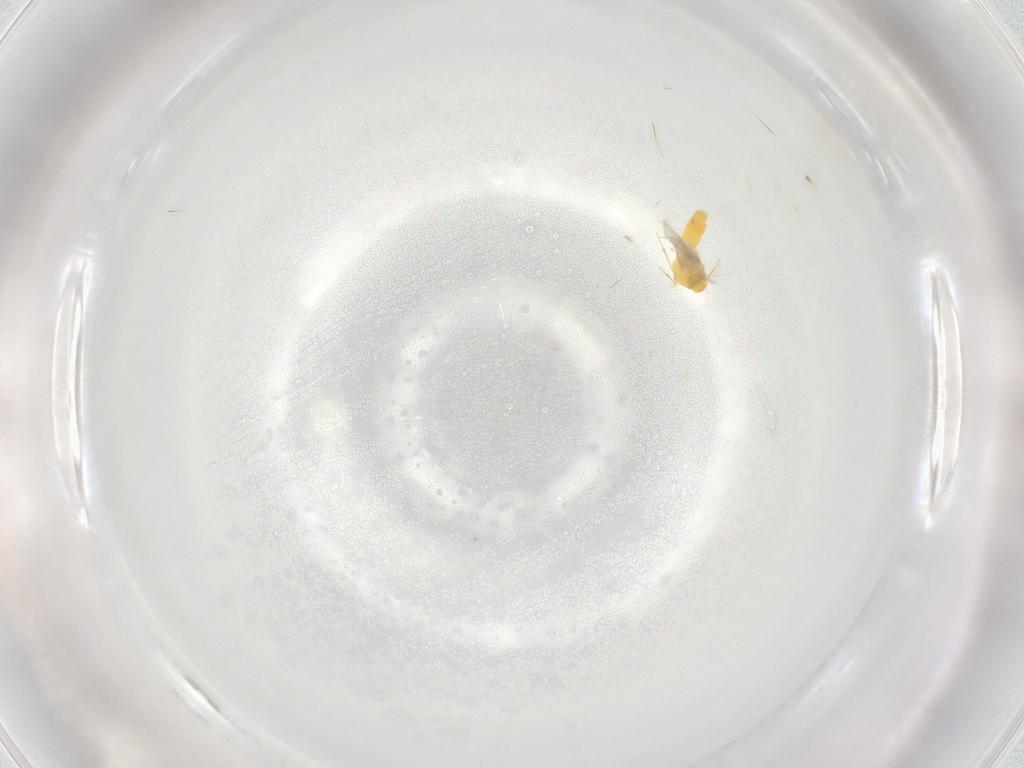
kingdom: Animalia
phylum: Arthropoda
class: Insecta
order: Hemiptera
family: Aleyrodidae
